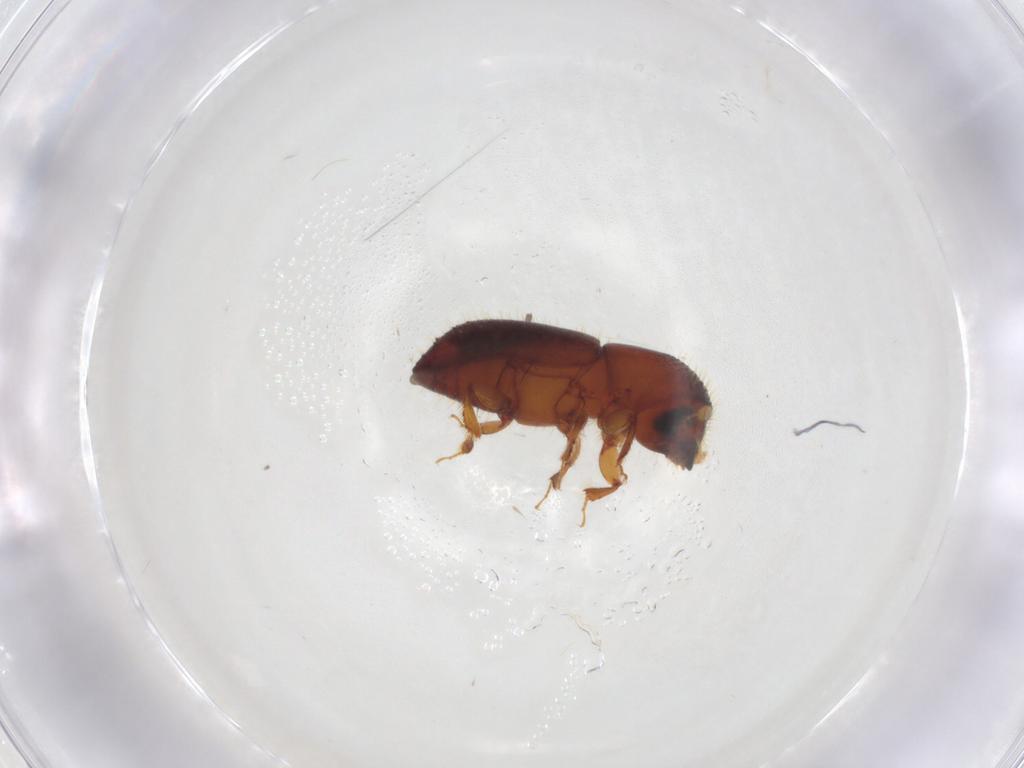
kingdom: Animalia
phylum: Arthropoda
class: Insecta
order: Coleoptera
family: Curculionidae
